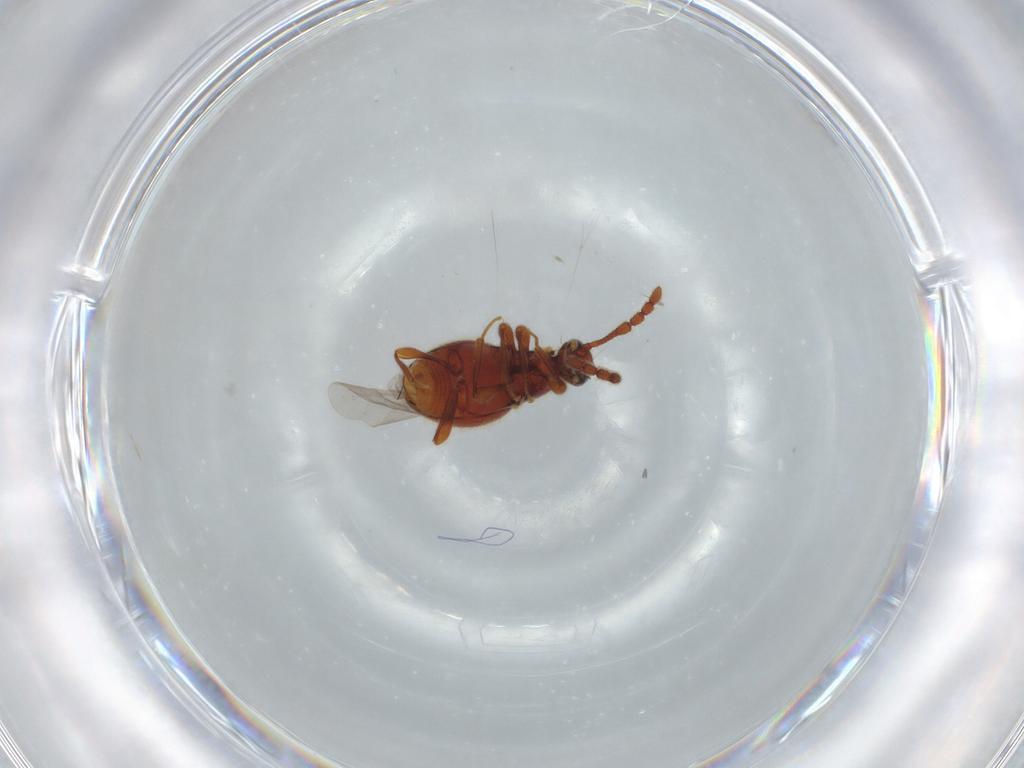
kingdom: Animalia
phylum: Arthropoda
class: Insecta
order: Coleoptera
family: Staphylinidae
